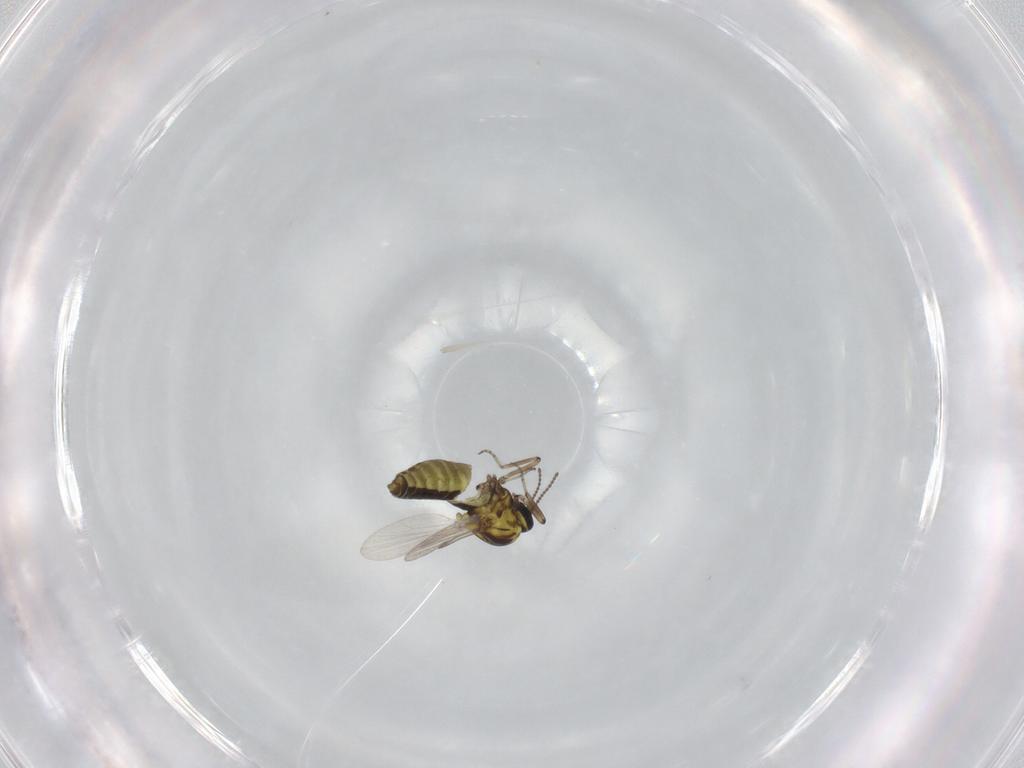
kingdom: Animalia
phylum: Arthropoda
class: Insecta
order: Diptera
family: Ceratopogonidae
